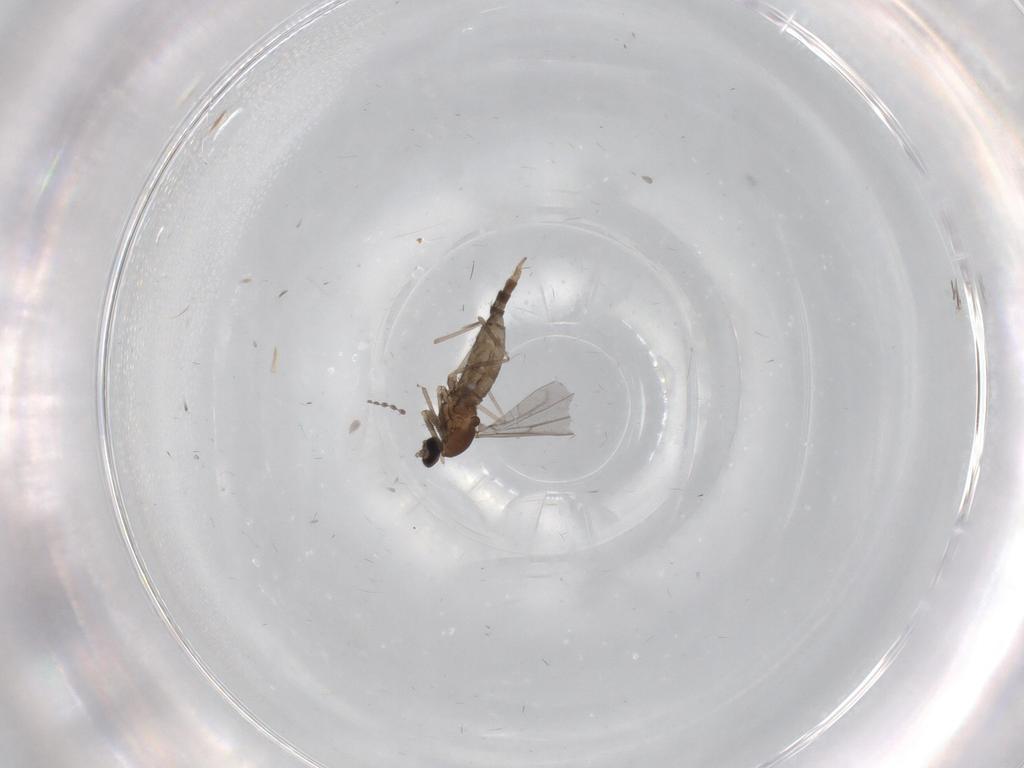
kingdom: Animalia
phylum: Arthropoda
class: Insecta
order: Diptera
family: Cecidomyiidae
